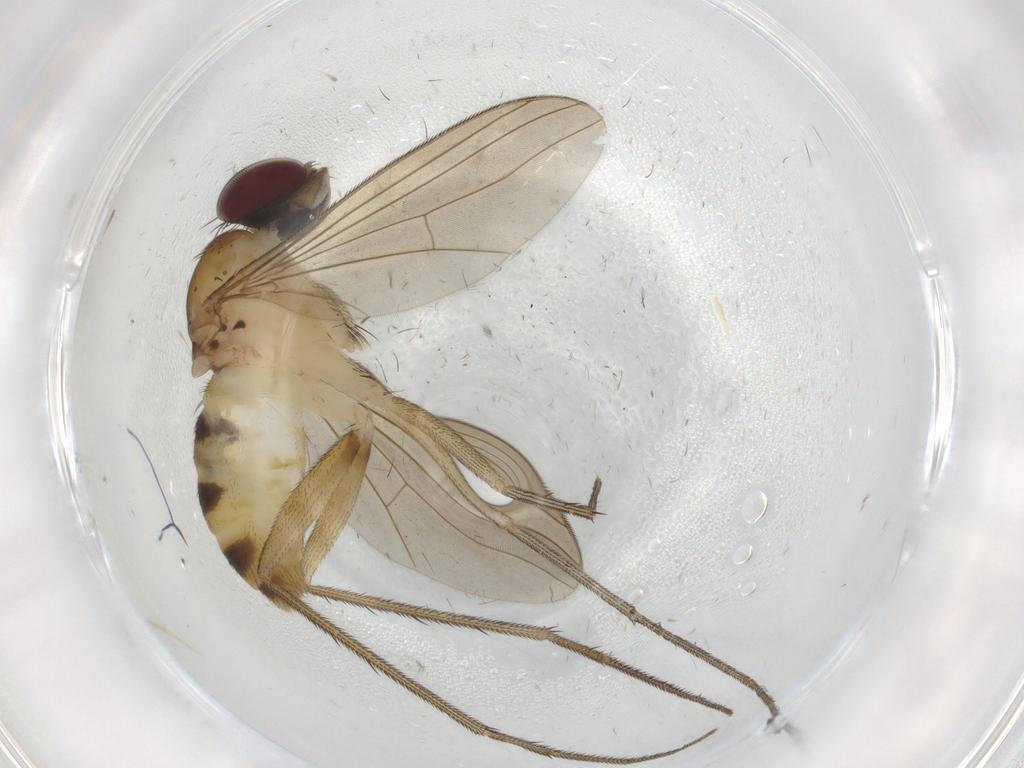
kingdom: Animalia
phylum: Arthropoda
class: Insecta
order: Diptera
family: Dolichopodidae
